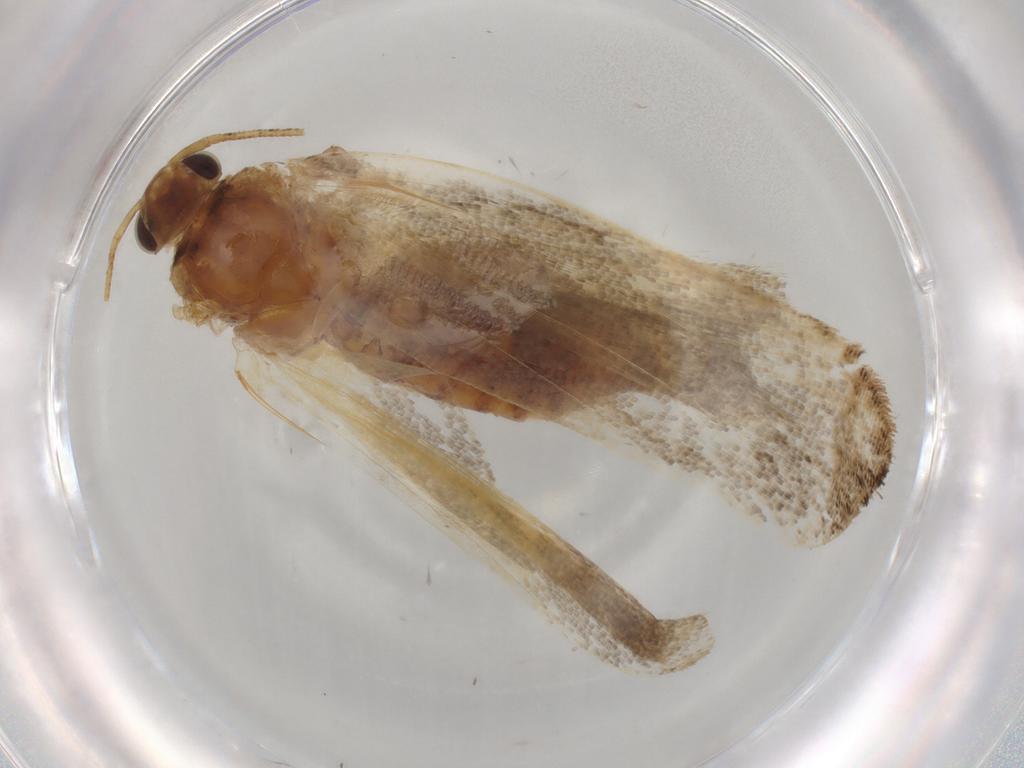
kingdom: Animalia
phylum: Arthropoda
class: Insecta
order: Lepidoptera
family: Gelechiidae
